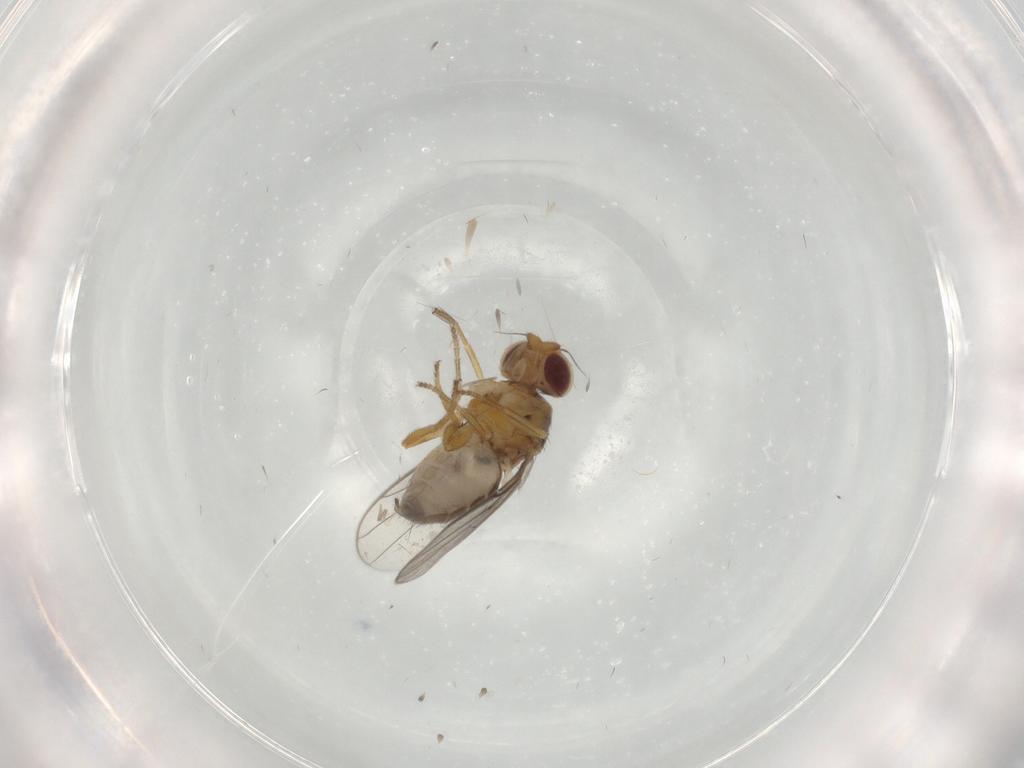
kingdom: Animalia
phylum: Arthropoda
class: Insecta
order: Diptera
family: Chloropidae
